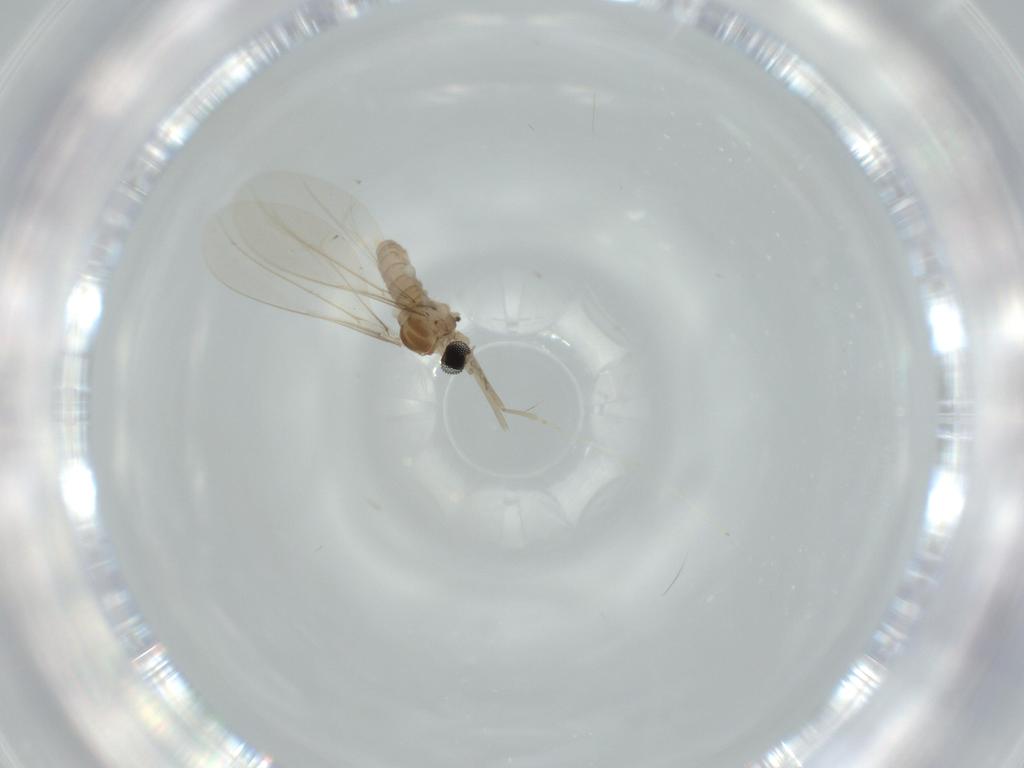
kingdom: Animalia
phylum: Arthropoda
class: Insecta
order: Diptera
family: Cecidomyiidae
